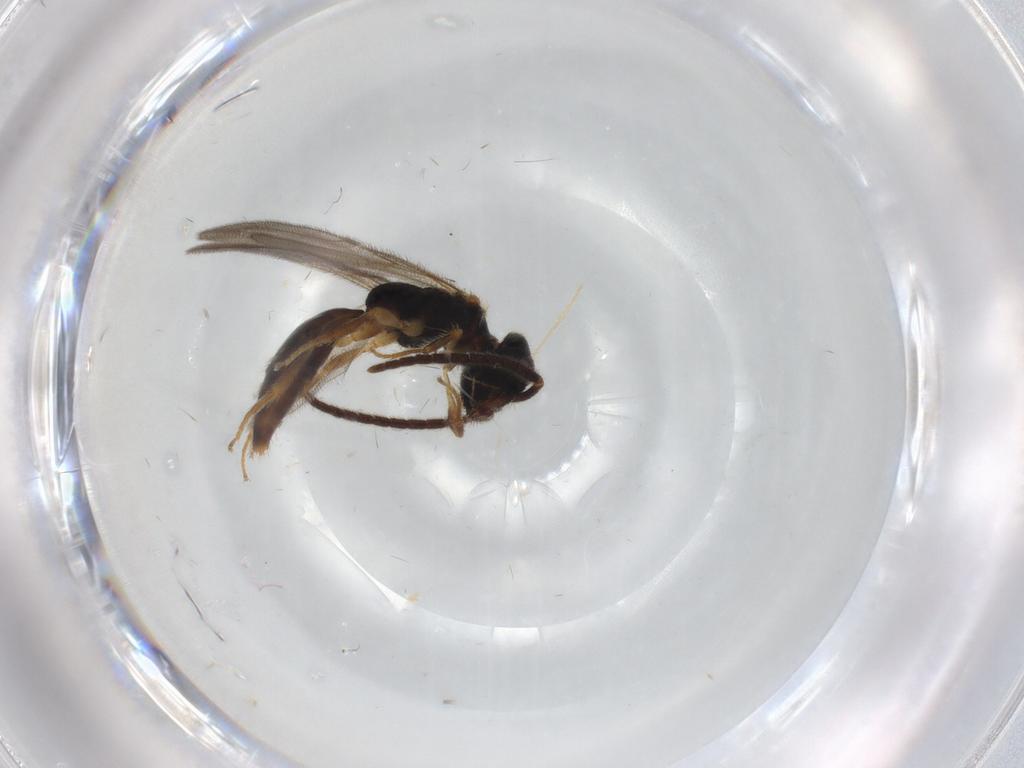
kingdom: Animalia
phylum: Arthropoda
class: Insecta
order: Hymenoptera
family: Bethylidae
